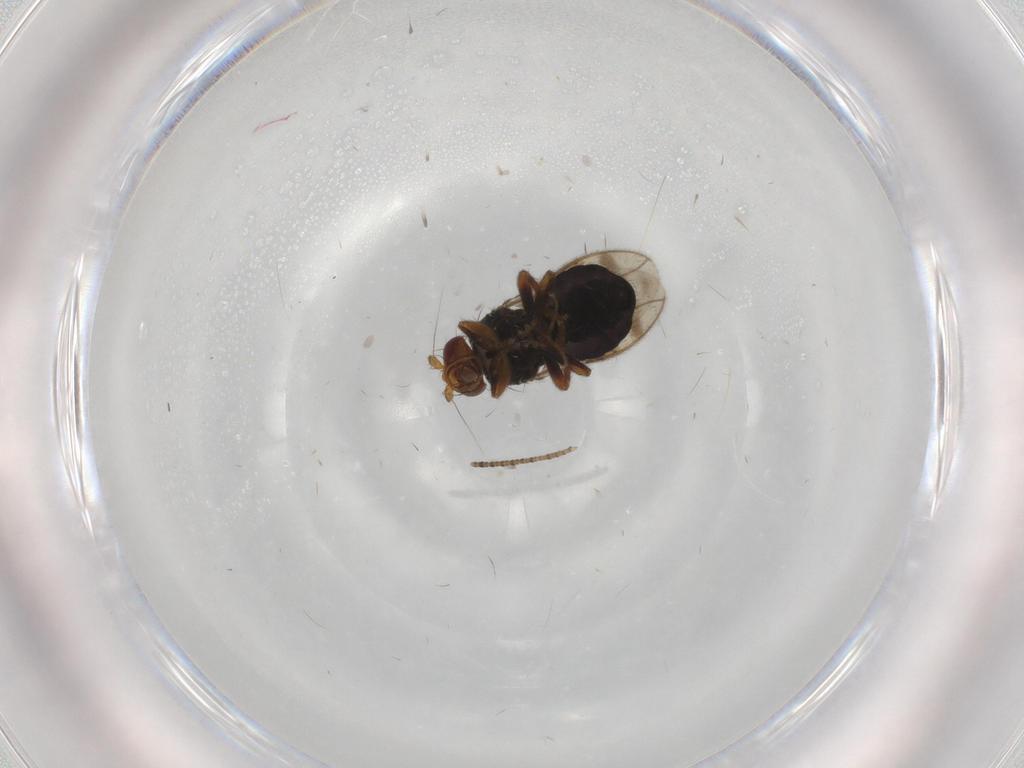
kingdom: Animalia
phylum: Arthropoda
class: Insecta
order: Diptera
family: Sphaeroceridae
